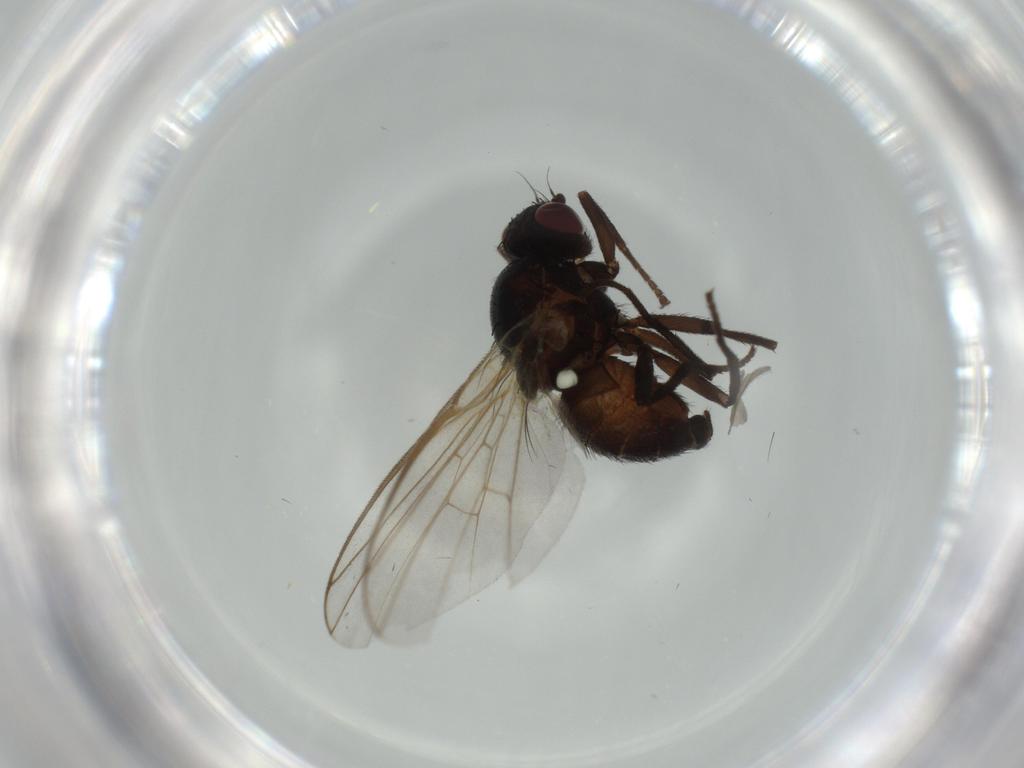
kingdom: Animalia
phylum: Arthropoda
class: Insecta
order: Diptera
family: Agromyzidae
